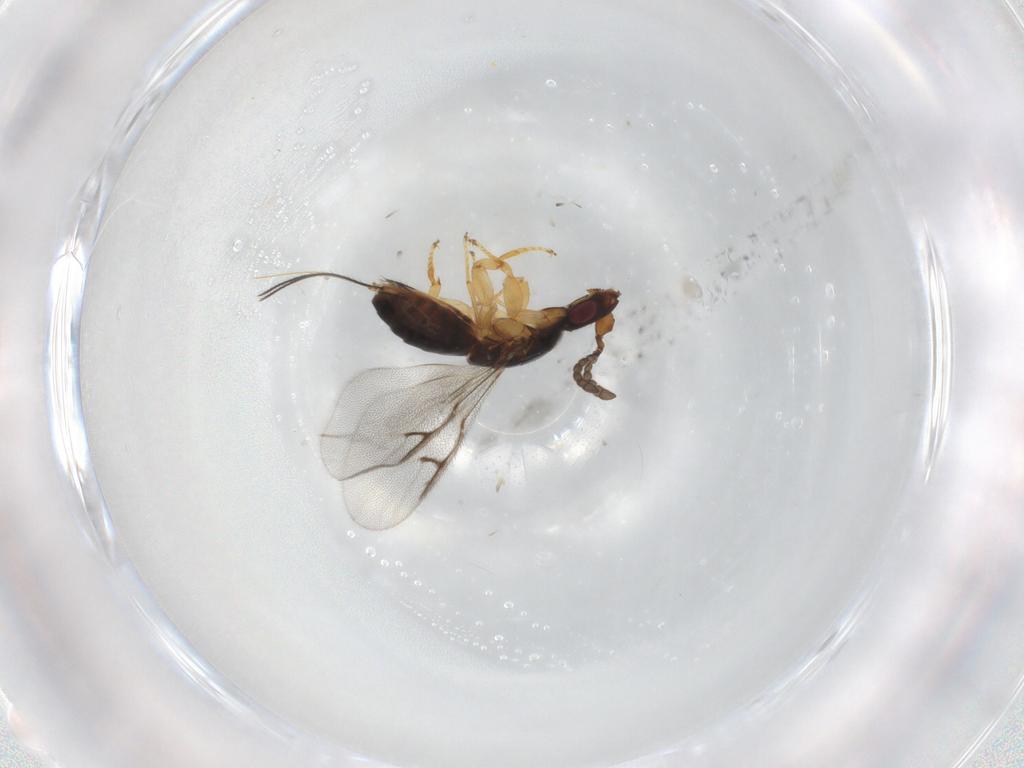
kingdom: Animalia
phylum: Arthropoda
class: Insecta
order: Hymenoptera
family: Agaonidae
